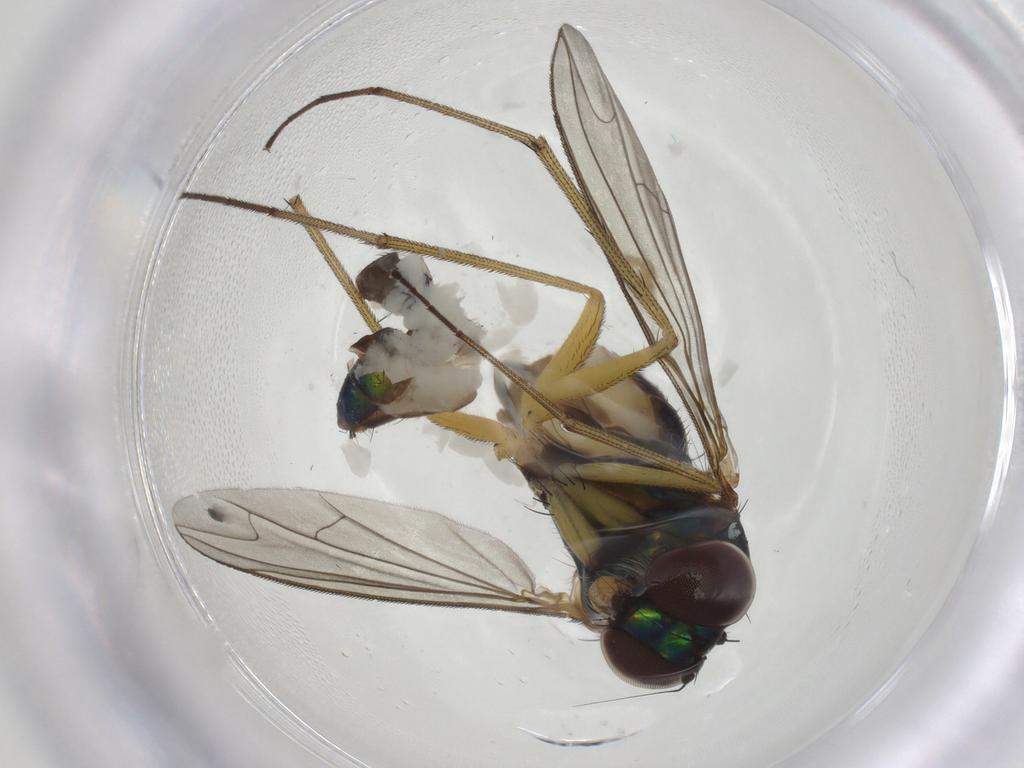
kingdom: Animalia
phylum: Arthropoda
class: Insecta
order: Diptera
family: Dolichopodidae
